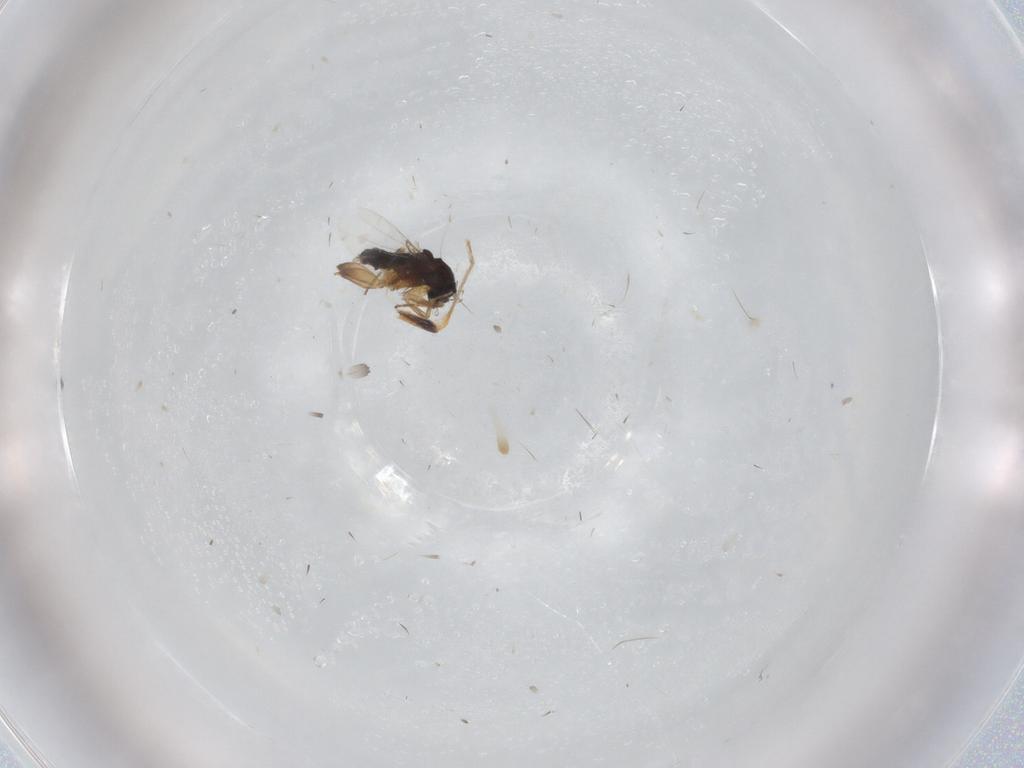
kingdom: Animalia
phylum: Arthropoda
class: Insecta
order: Diptera
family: Phoridae
